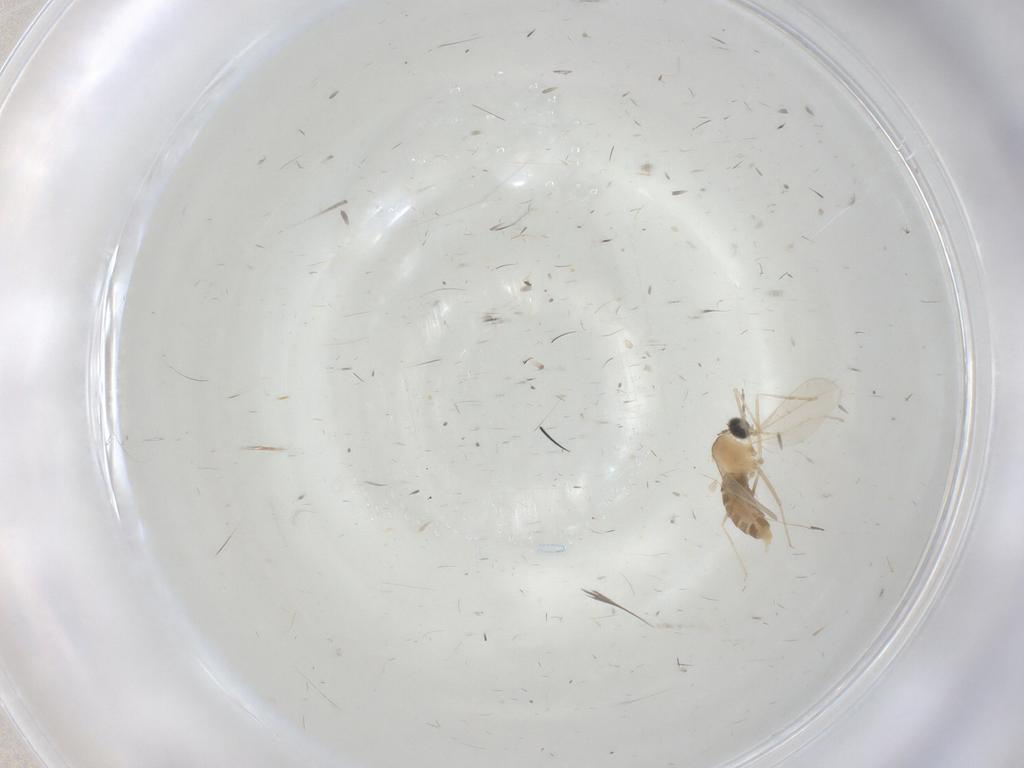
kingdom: Animalia
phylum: Arthropoda
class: Insecta
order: Diptera
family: Cecidomyiidae
